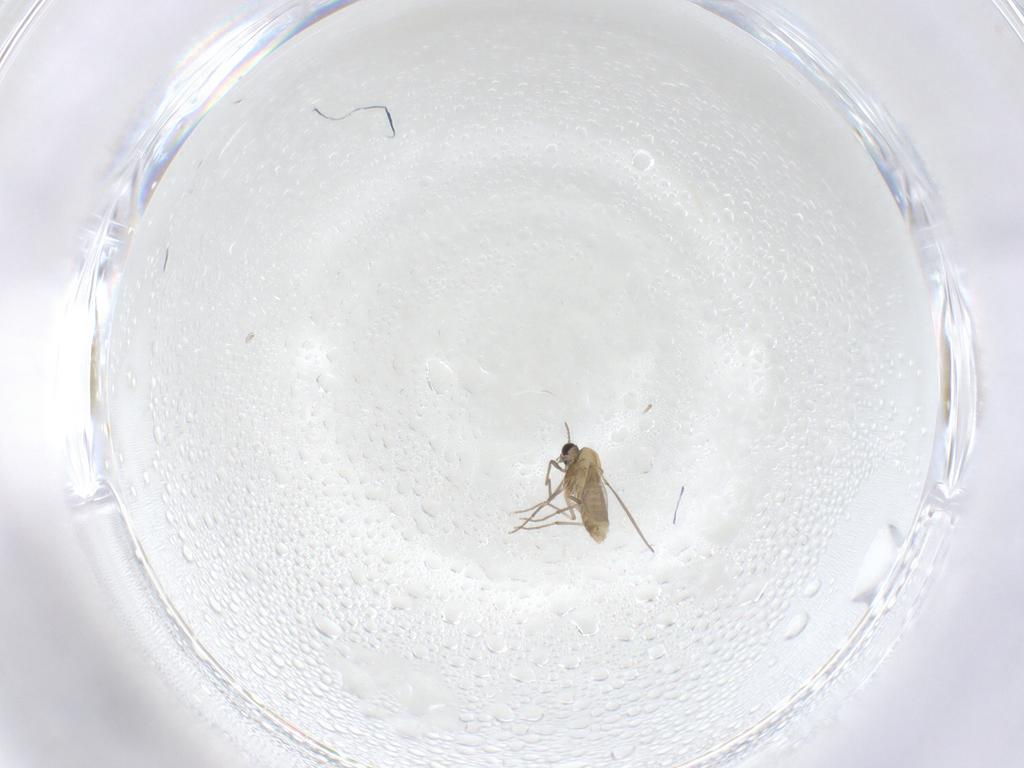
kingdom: Animalia
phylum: Arthropoda
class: Insecta
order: Diptera
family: Chironomidae
